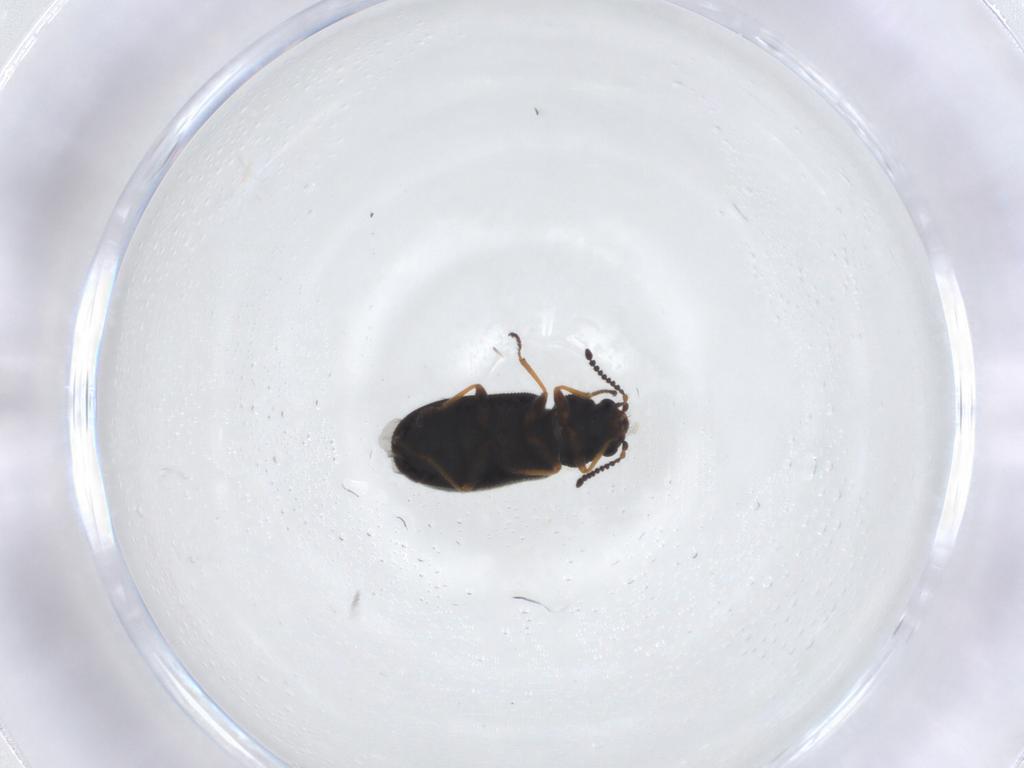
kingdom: Animalia
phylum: Arthropoda
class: Insecta
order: Coleoptera
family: Melyridae
